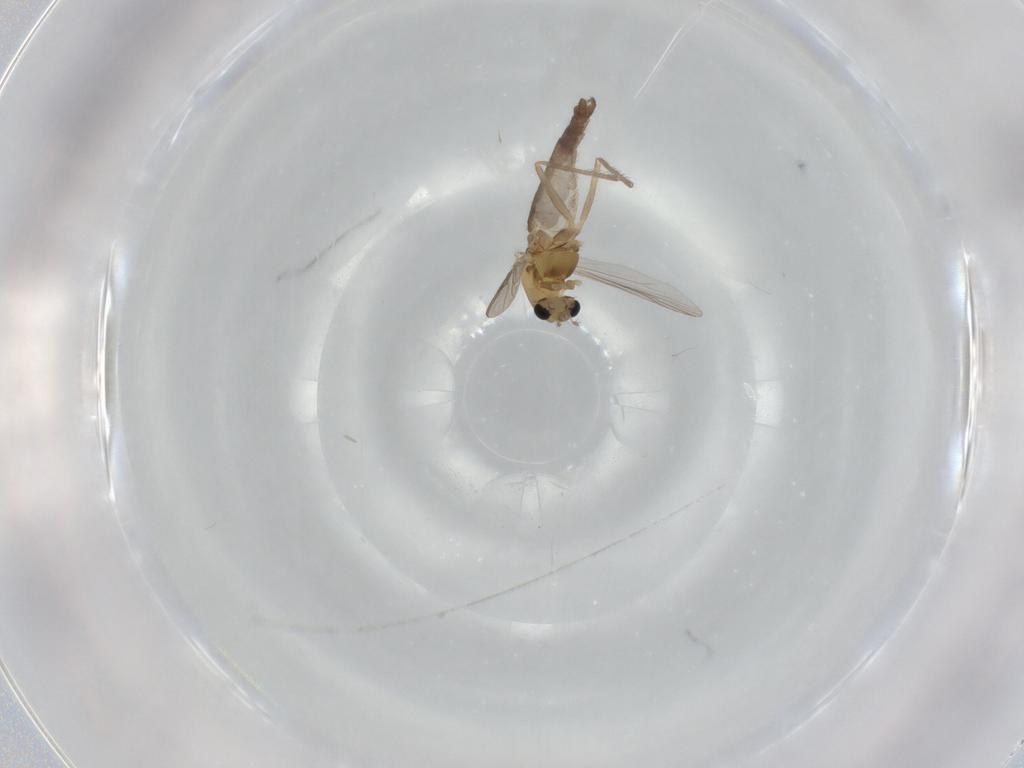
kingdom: Animalia
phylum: Arthropoda
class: Insecta
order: Diptera
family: Chironomidae
